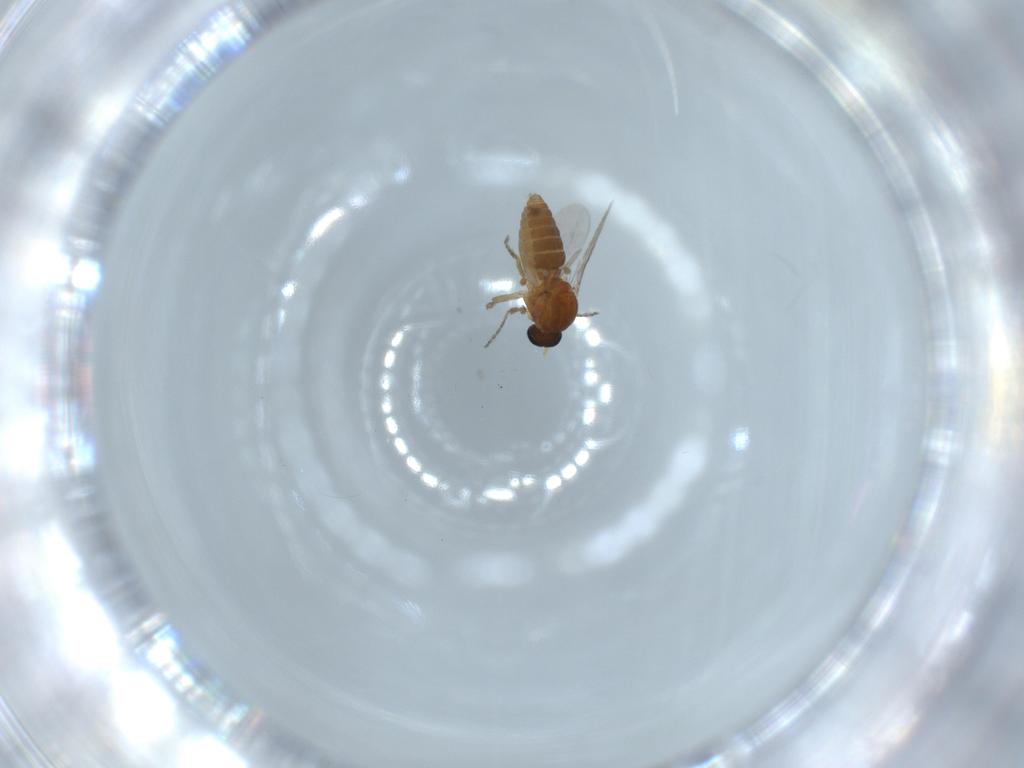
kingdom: Animalia
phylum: Arthropoda
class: Insecta
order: Diptera
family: Ceratopogonidae
